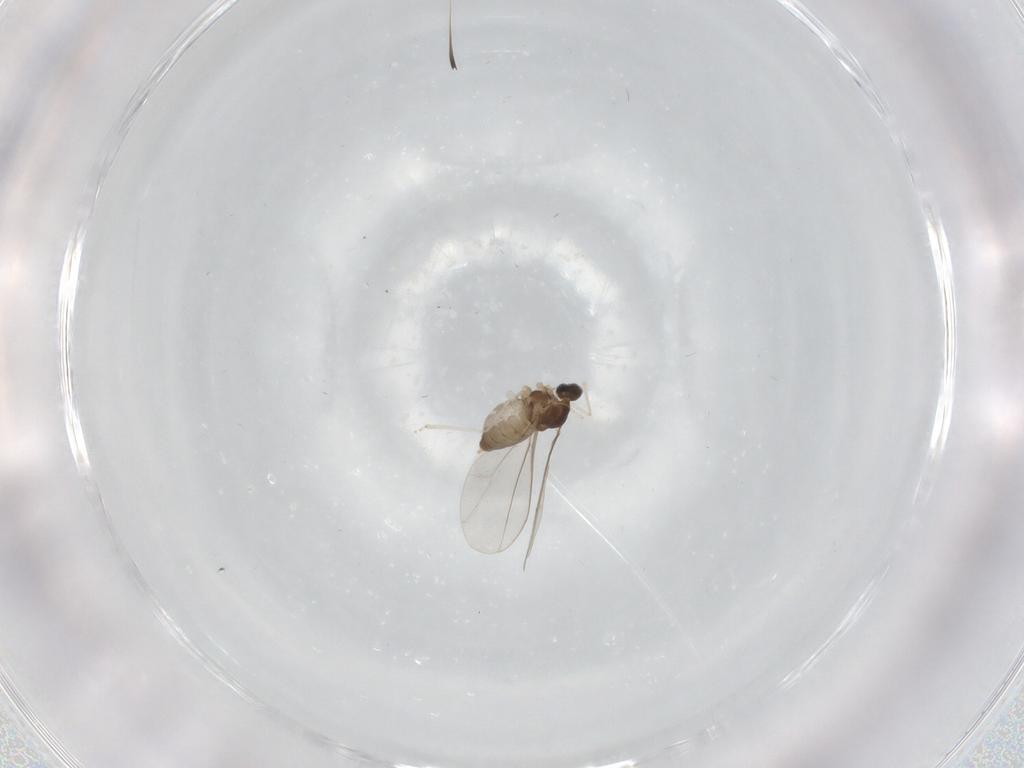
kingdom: Animalia
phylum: Arthropoda
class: Insecta
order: Diptera
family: Cecidomyiidae
